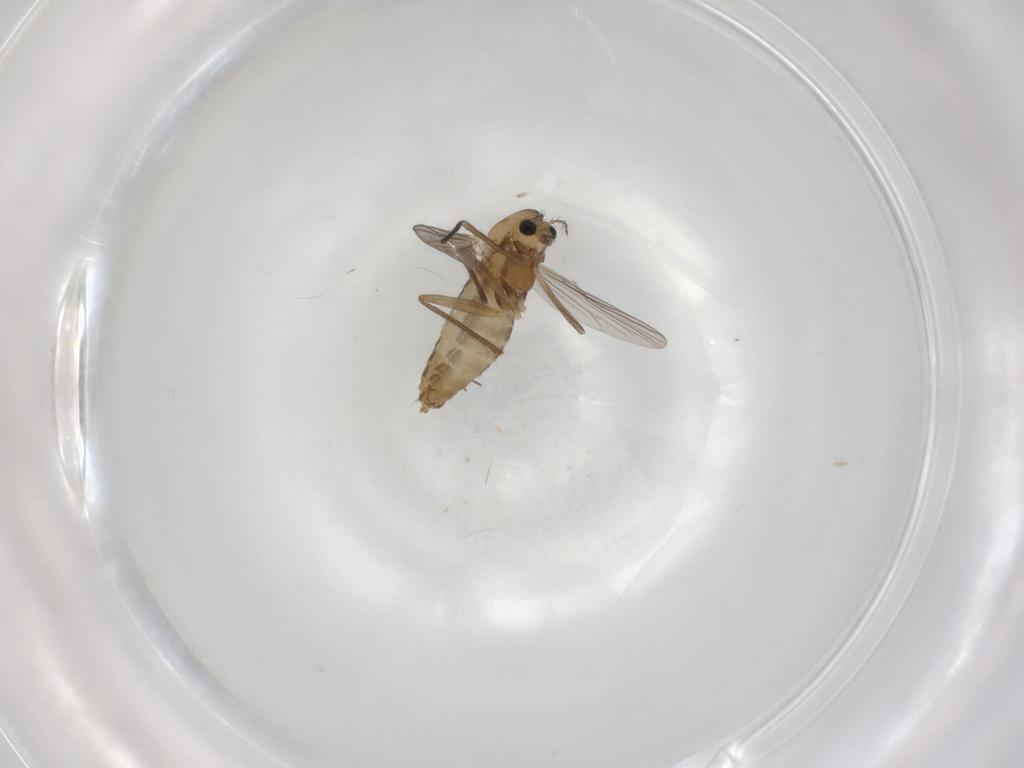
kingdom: Animalia
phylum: Arthropoda
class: Insecta
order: Diptera
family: Chironomidae
